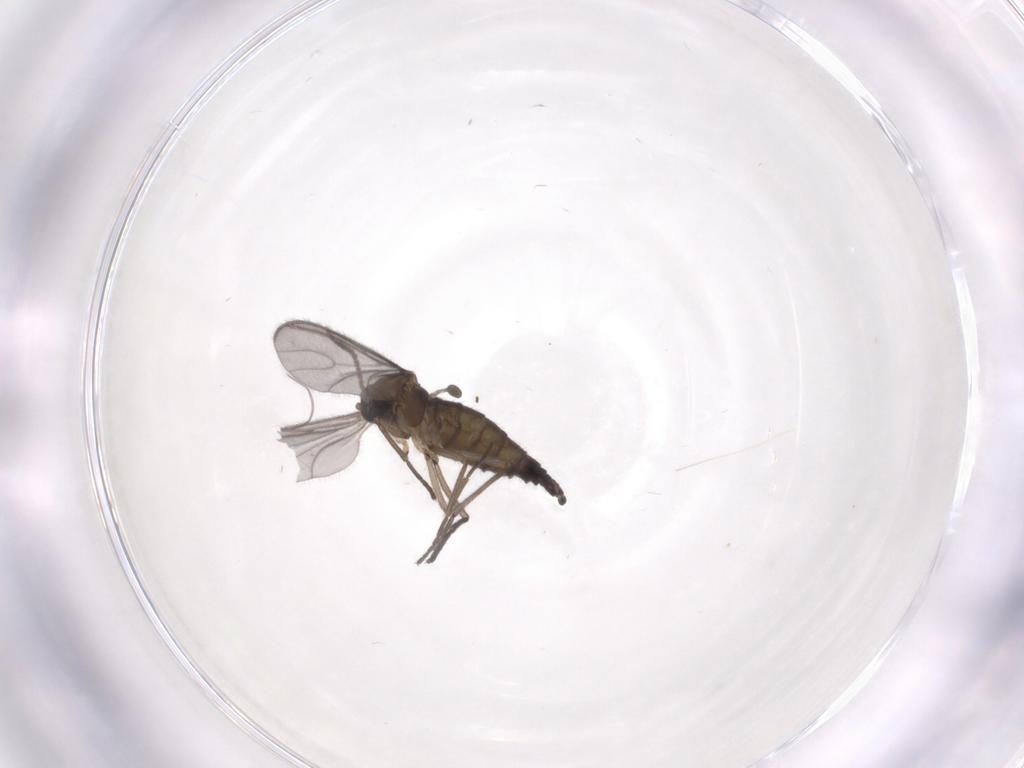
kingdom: Animalia
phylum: Arthropoda
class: Insecta
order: Diptera
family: Sciaridae
